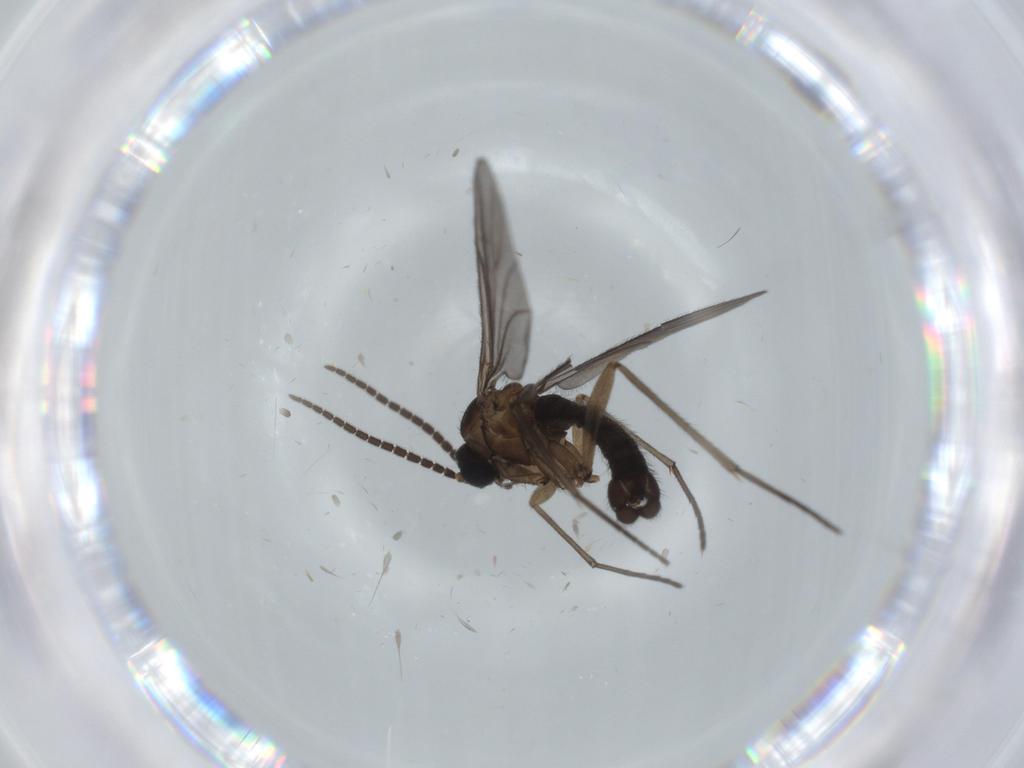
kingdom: Animalia
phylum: Arthropoda
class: Insecta
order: Diptera
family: Sciaridae
